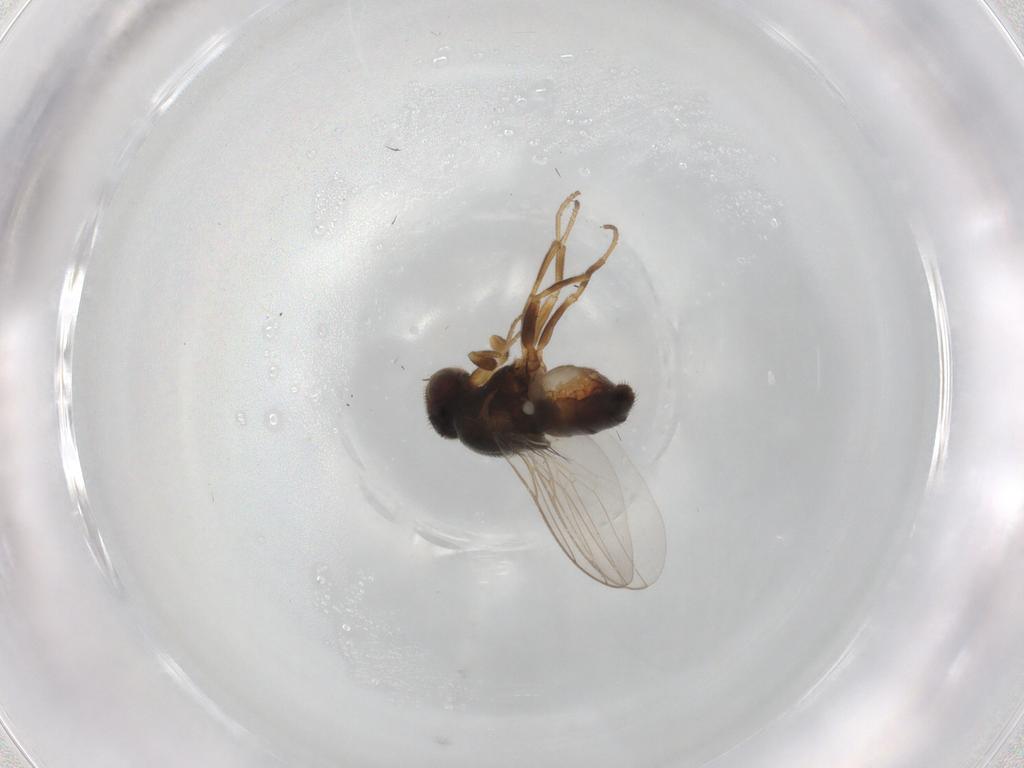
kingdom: Animalia
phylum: Arthropoda
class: Insecta
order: Diptera
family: Chloropidae
